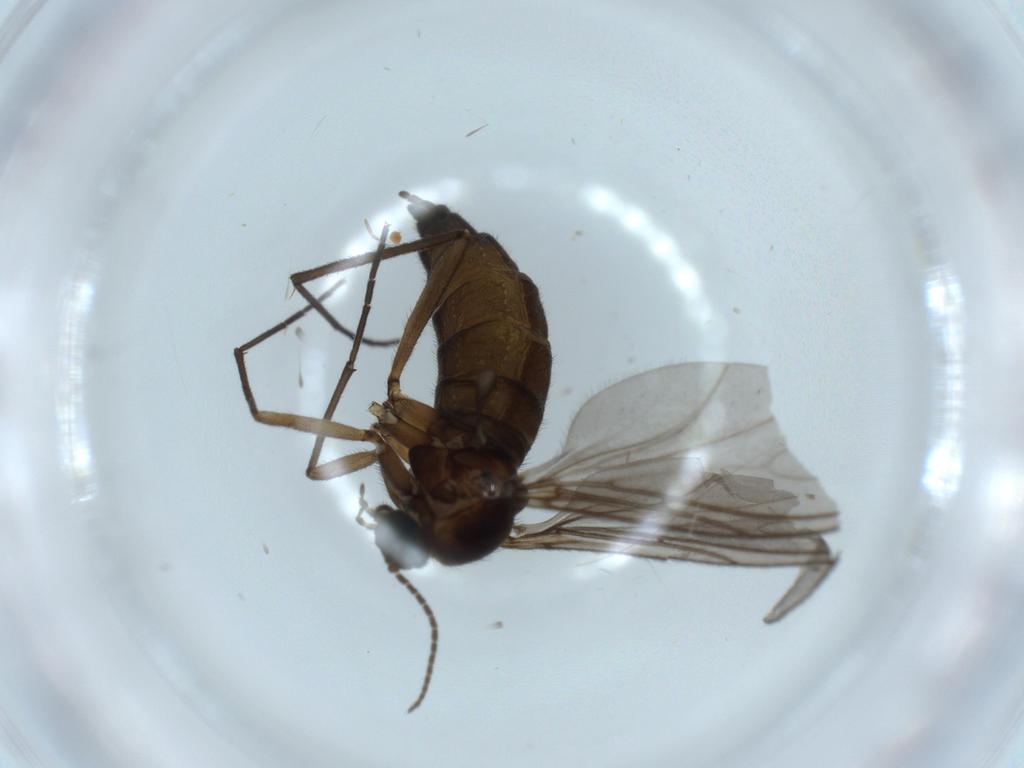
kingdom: Animalia
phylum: Arthropoda
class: Insecta
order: Diptera
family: Sciaridae
